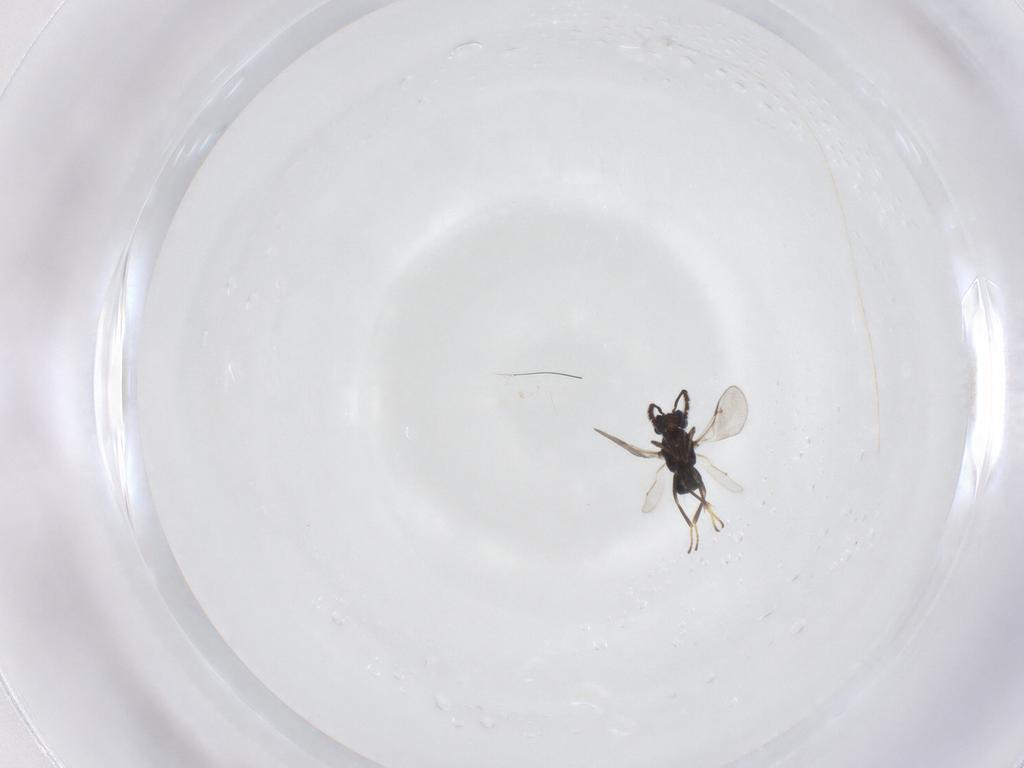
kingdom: Animalia
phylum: Arthropoda
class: Insecta
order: Hymenoptera
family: Encyrtidae
